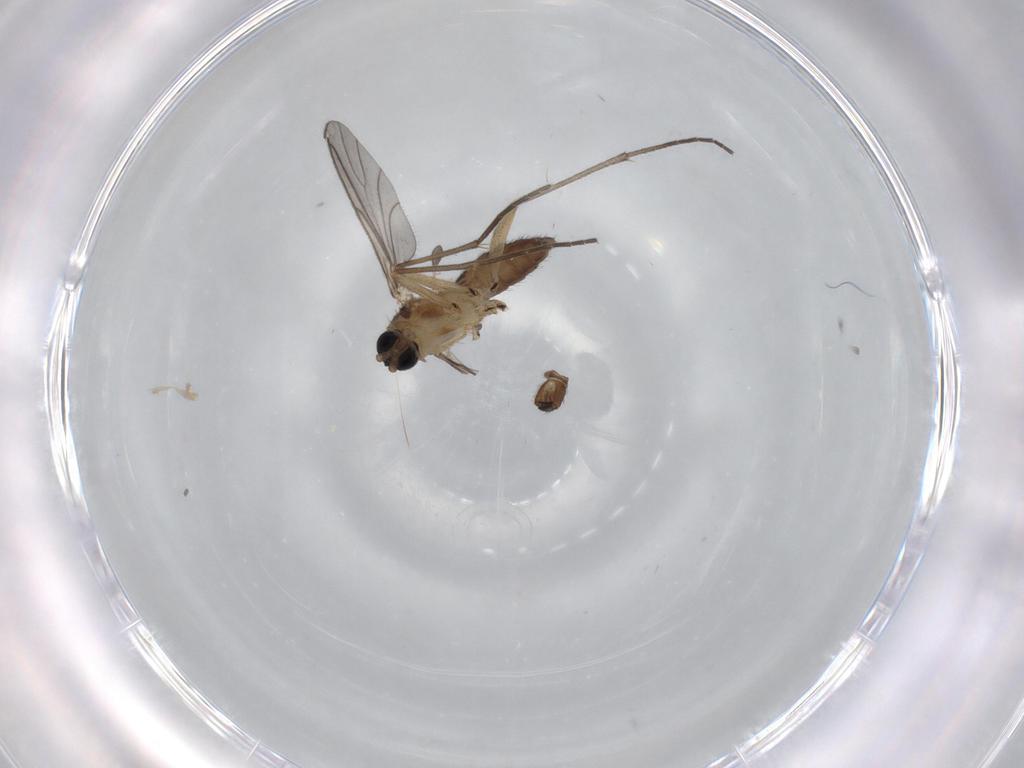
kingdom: Animalia
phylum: Arthropoda
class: Insecta
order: Diptera
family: Sciaridae
